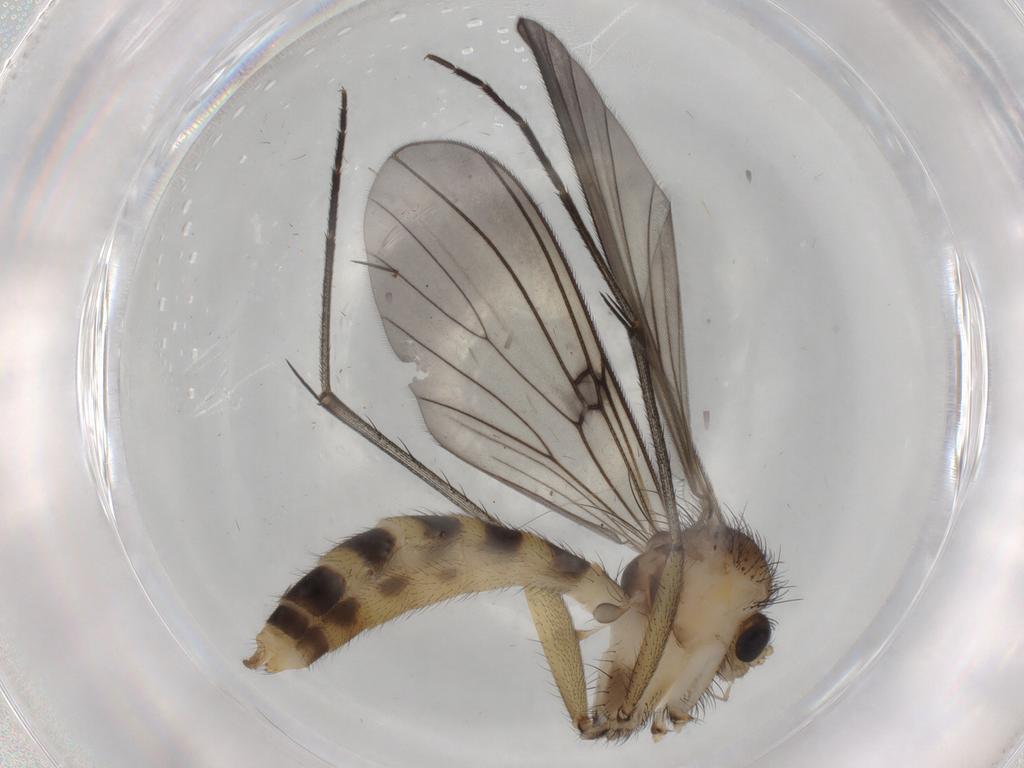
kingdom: Animalia
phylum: Arthropoda
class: Insecta
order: Diptera
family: Mycetophilidae
